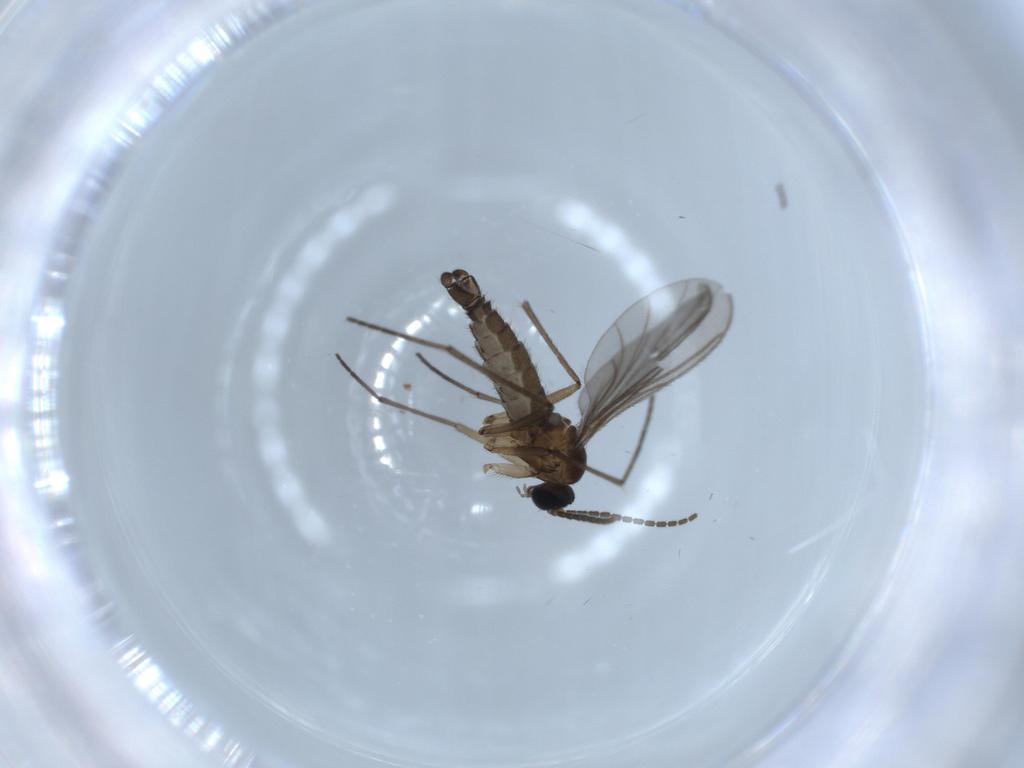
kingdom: Animalia
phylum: Arthropoda
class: Insecta
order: Diptera
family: Sciaridae
